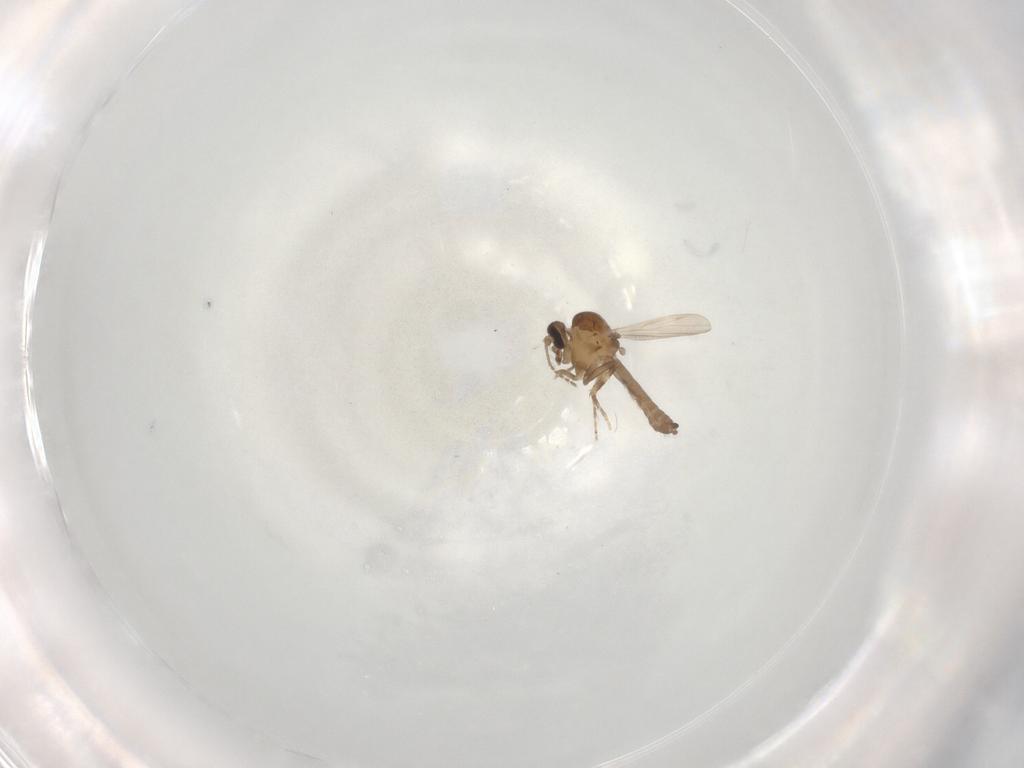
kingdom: Animalia
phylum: Arthropoda
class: Insecta
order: Diptera
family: Ceratopogonidae
